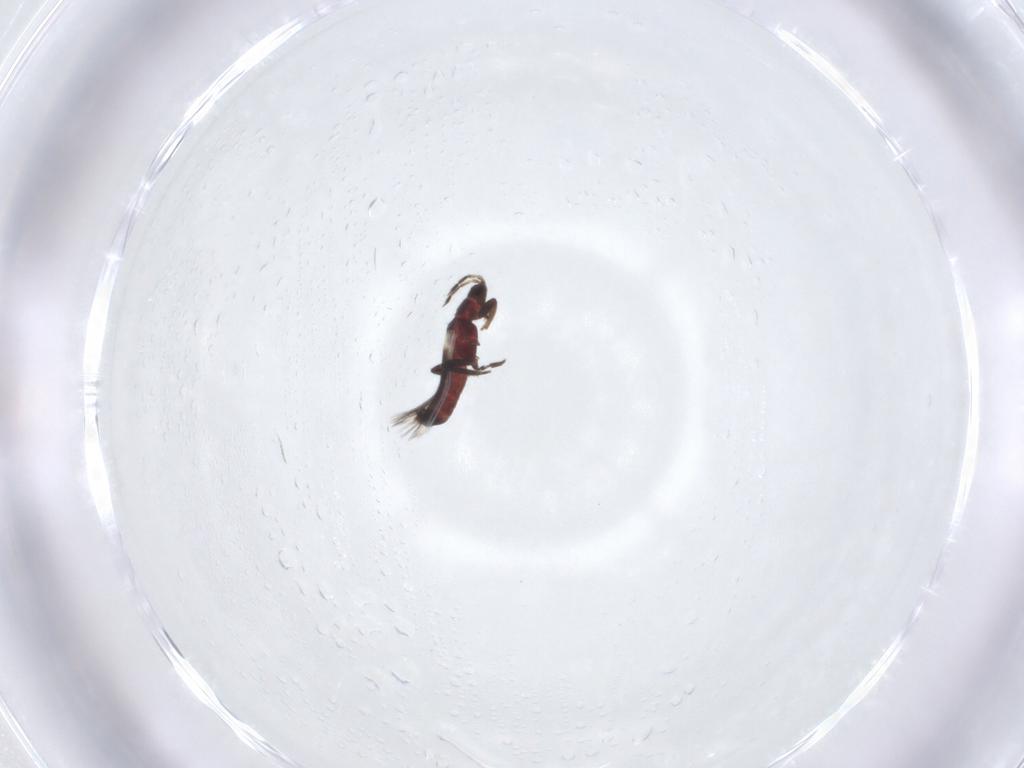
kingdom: Animalia
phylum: Arthropoda
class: Insecta
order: Thysanoptera
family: Aeolothripidae
